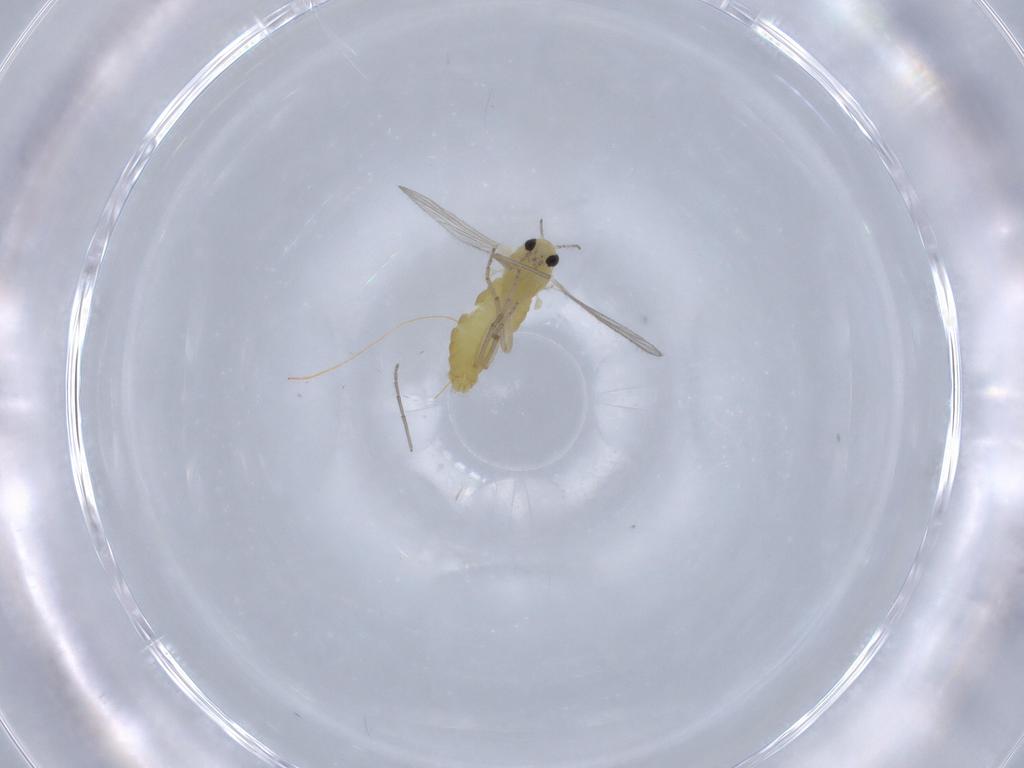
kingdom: Animalia
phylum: Arthropoda
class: Insecta
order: Diptera
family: Chironomidae
